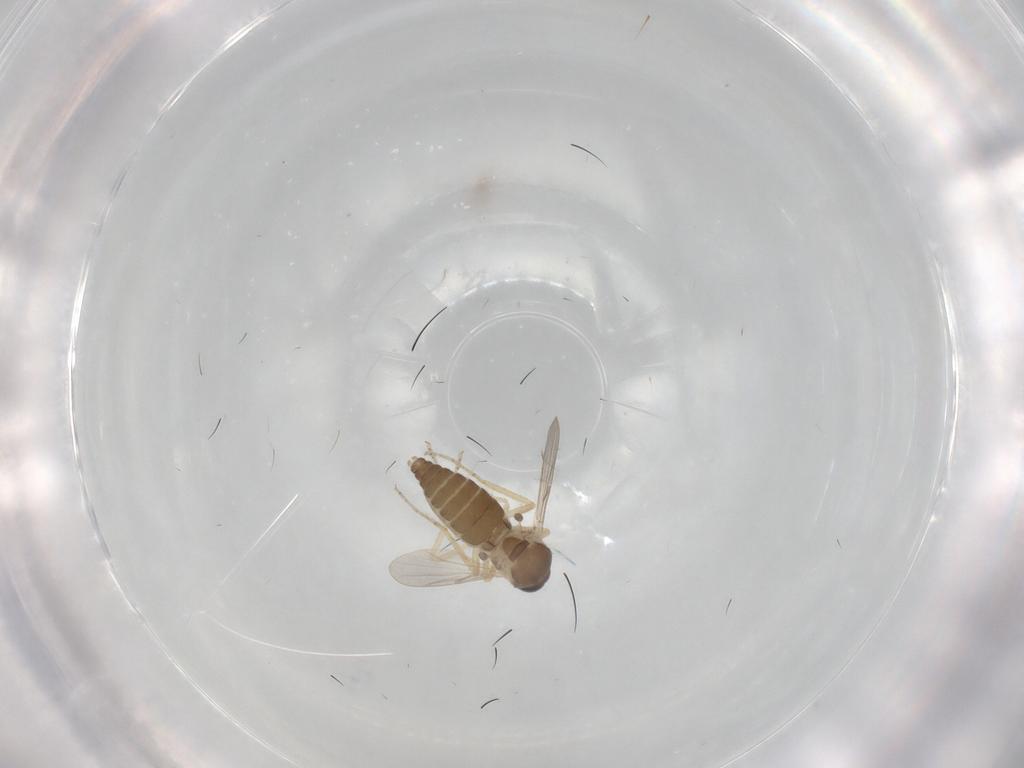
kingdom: Animalia
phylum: Arthropoda
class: Insecta
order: Diptera
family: Ceratopogonidae
